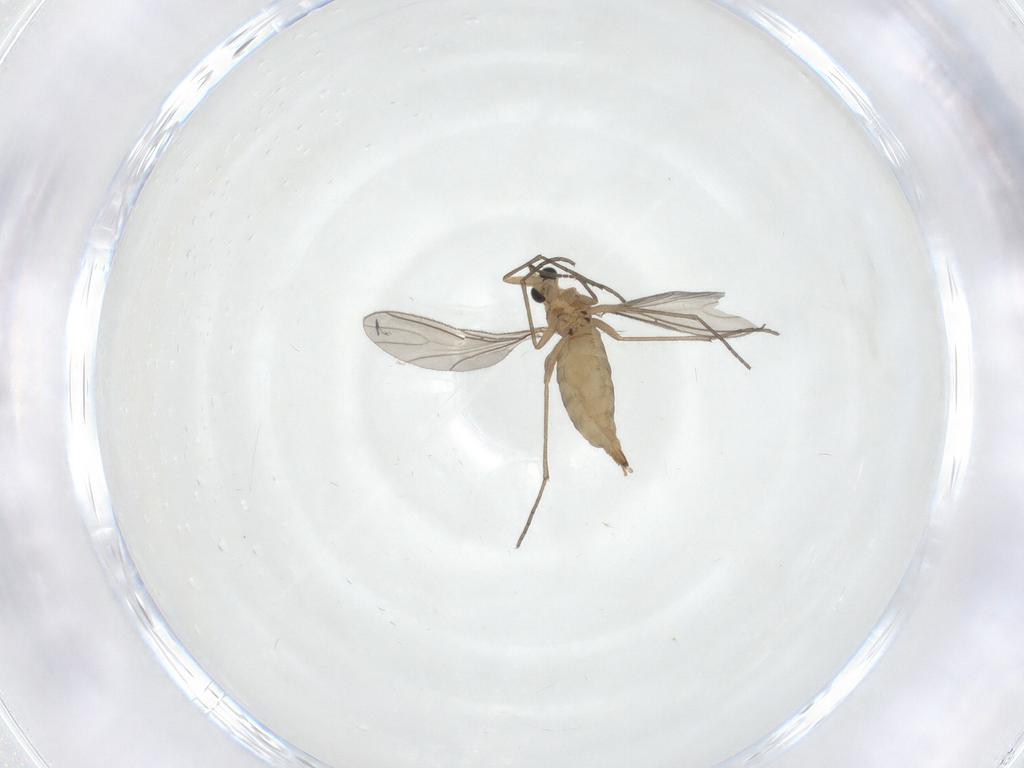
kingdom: Animalia
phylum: Arthropoda
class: Insecta
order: Diptera
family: Sciaridae
